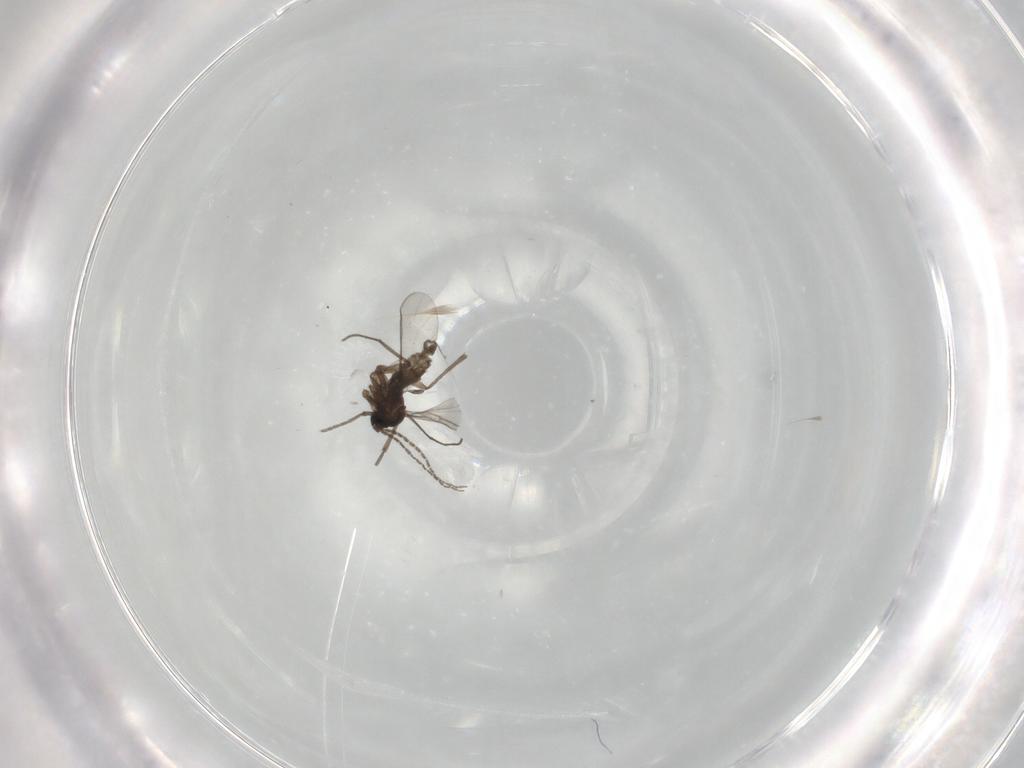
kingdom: Animalia
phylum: Arthropoda
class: Insecta
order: Diptera
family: Sciaridae
